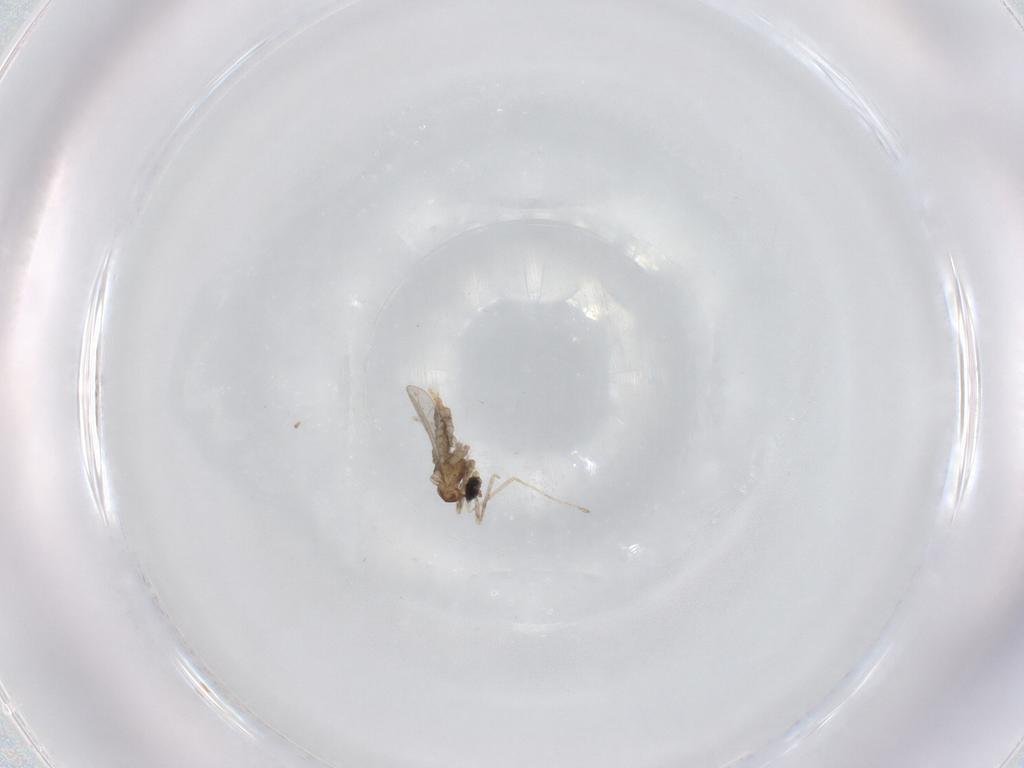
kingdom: Animalia
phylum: Arthropoda
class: Insecta
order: Diptera
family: Cecidomyiidae
